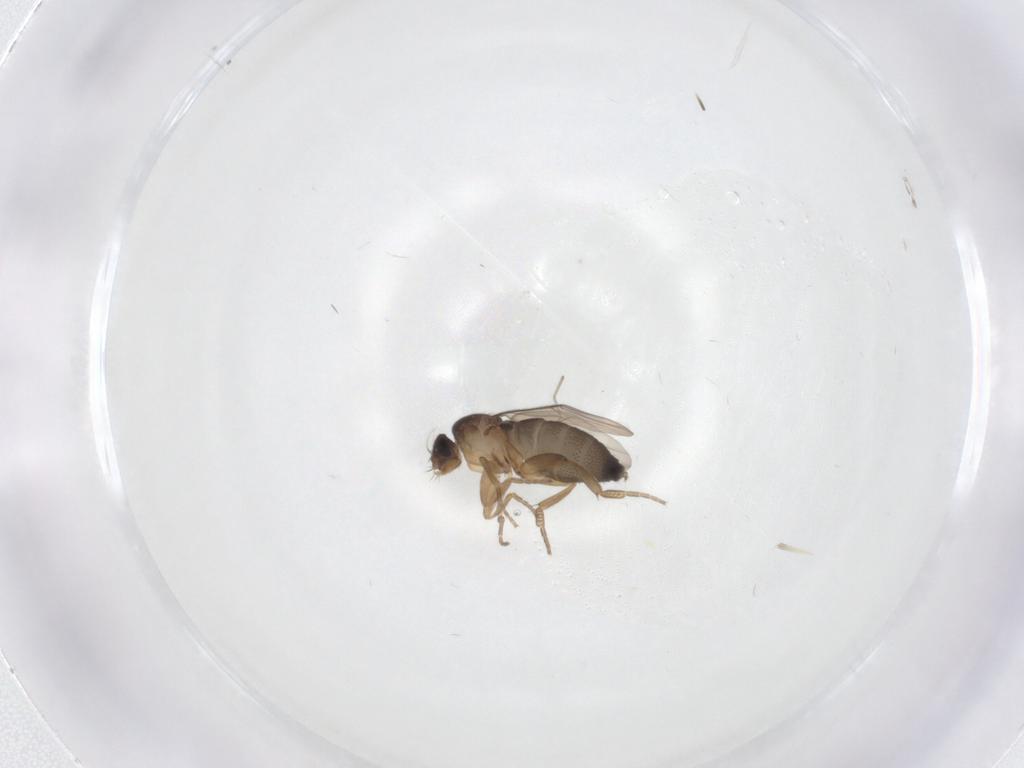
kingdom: Animalia
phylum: Arthropoda
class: Insecta
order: Diptera
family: Phoridae
